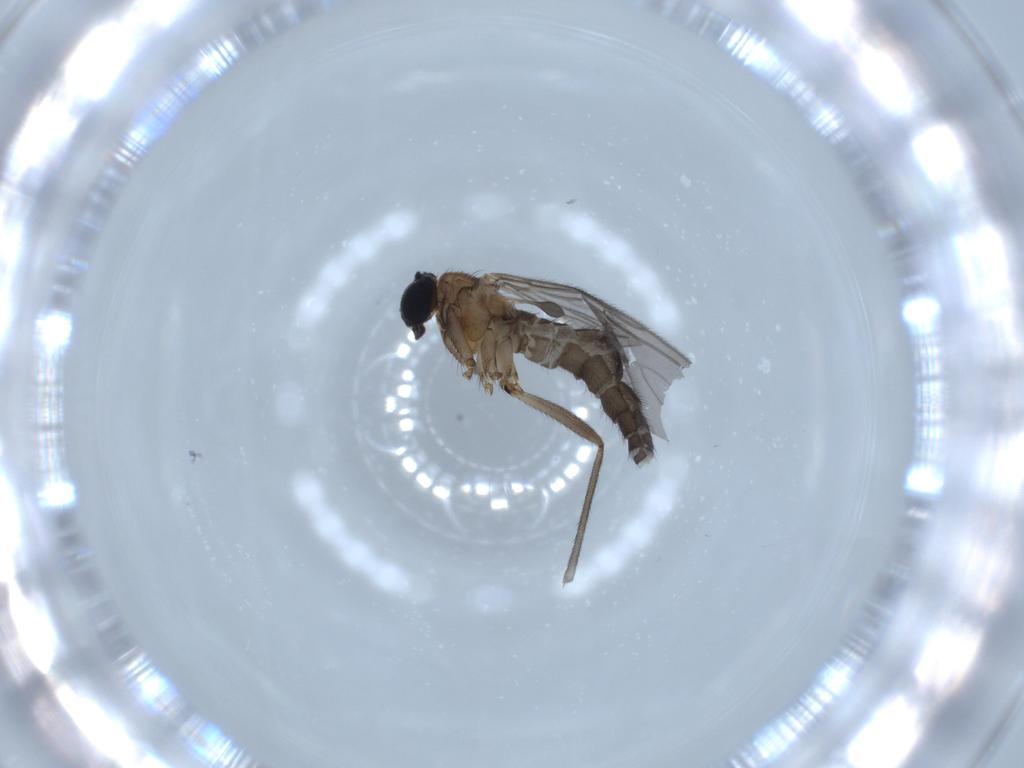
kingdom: Animalia
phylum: Arthropoda
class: Insecta
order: Diptera
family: Sciaridae
